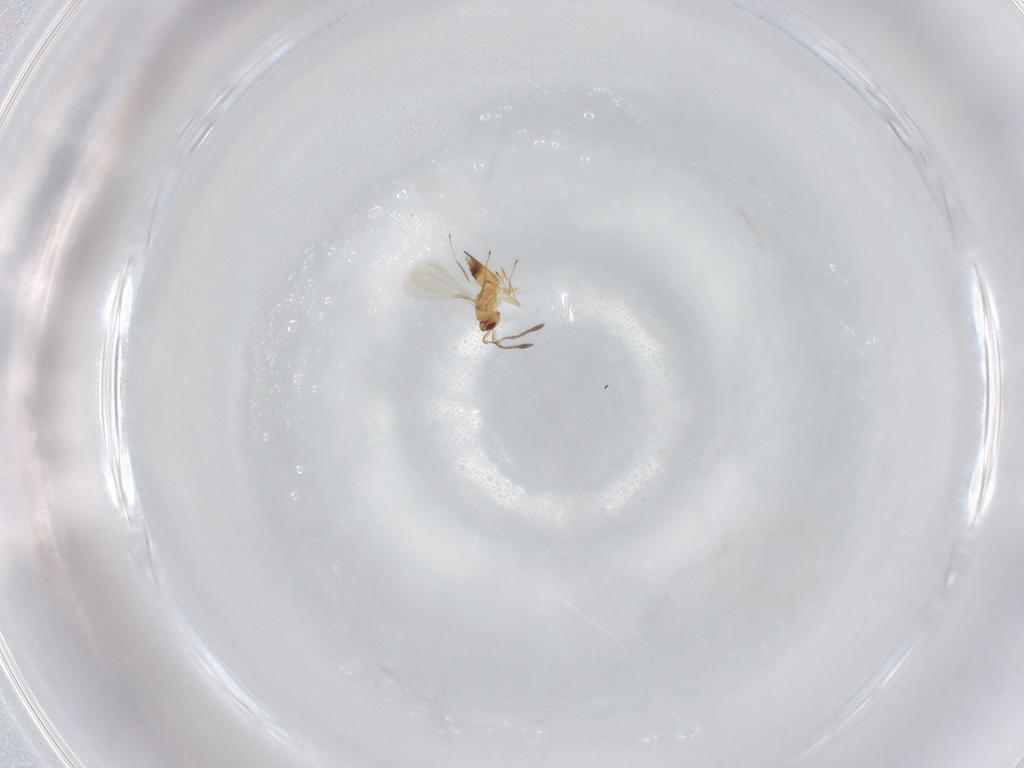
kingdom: Animalia
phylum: Arthropoda
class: Insecta
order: Hymenoptera
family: Mymaridae
